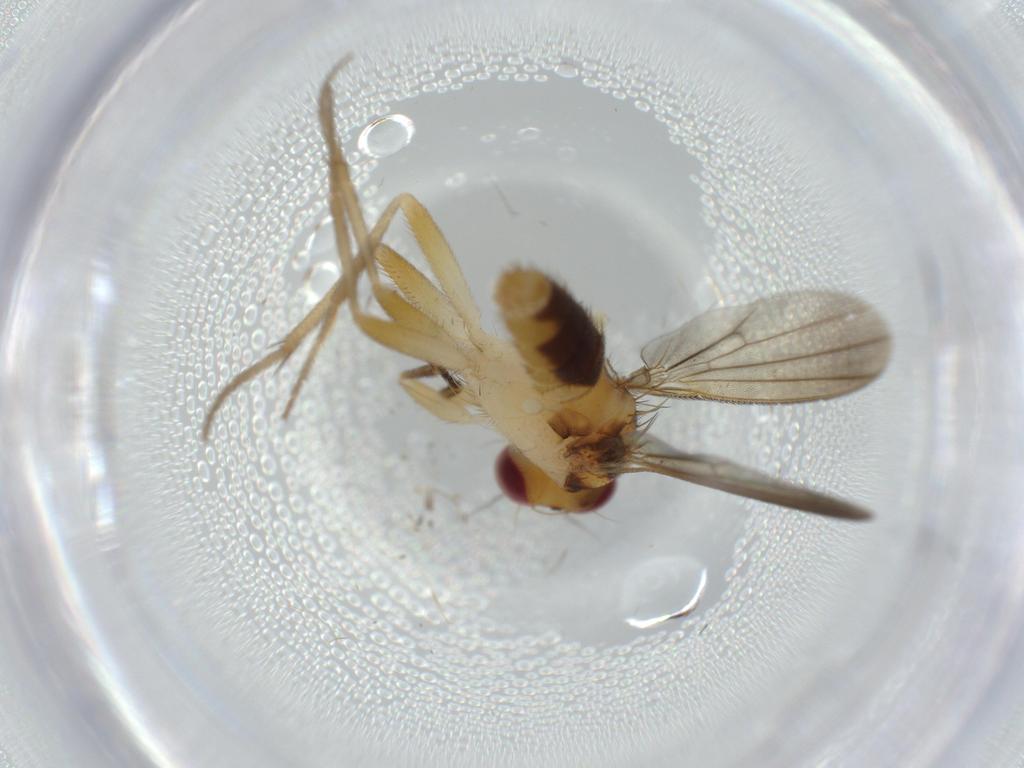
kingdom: Animalia
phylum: Arthropoda
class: Insecta
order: Diptera
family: Clusiidae
